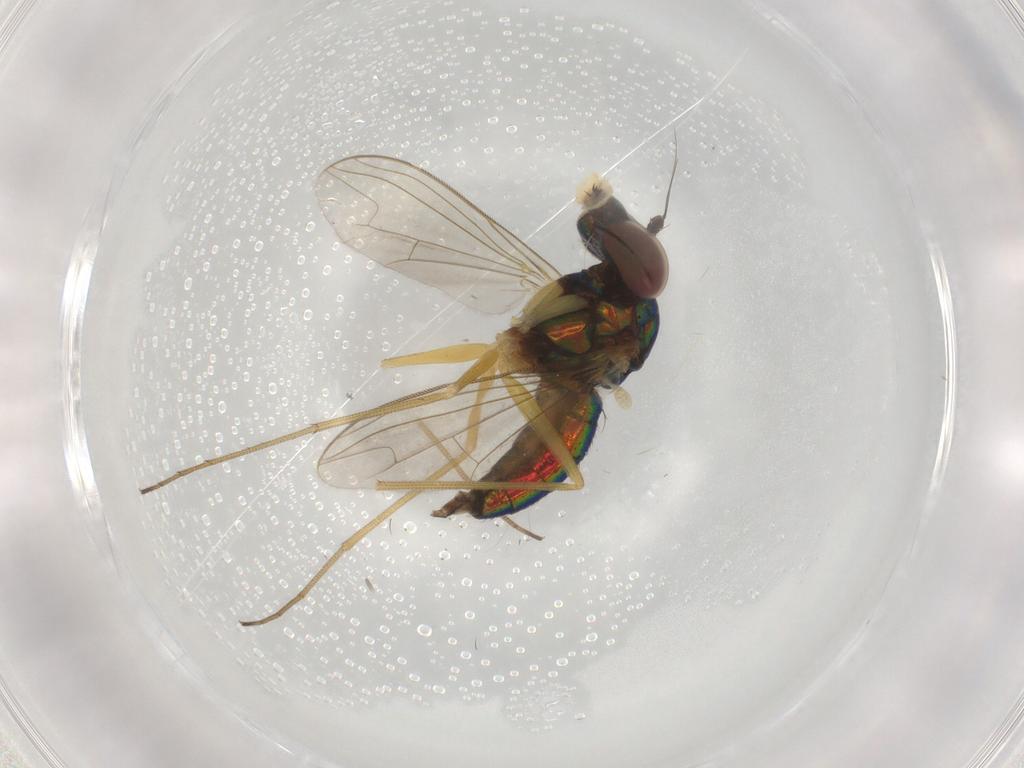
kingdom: Animalia
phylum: Arthropoda
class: Insecta
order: Diptera
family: Dolichopodidae
